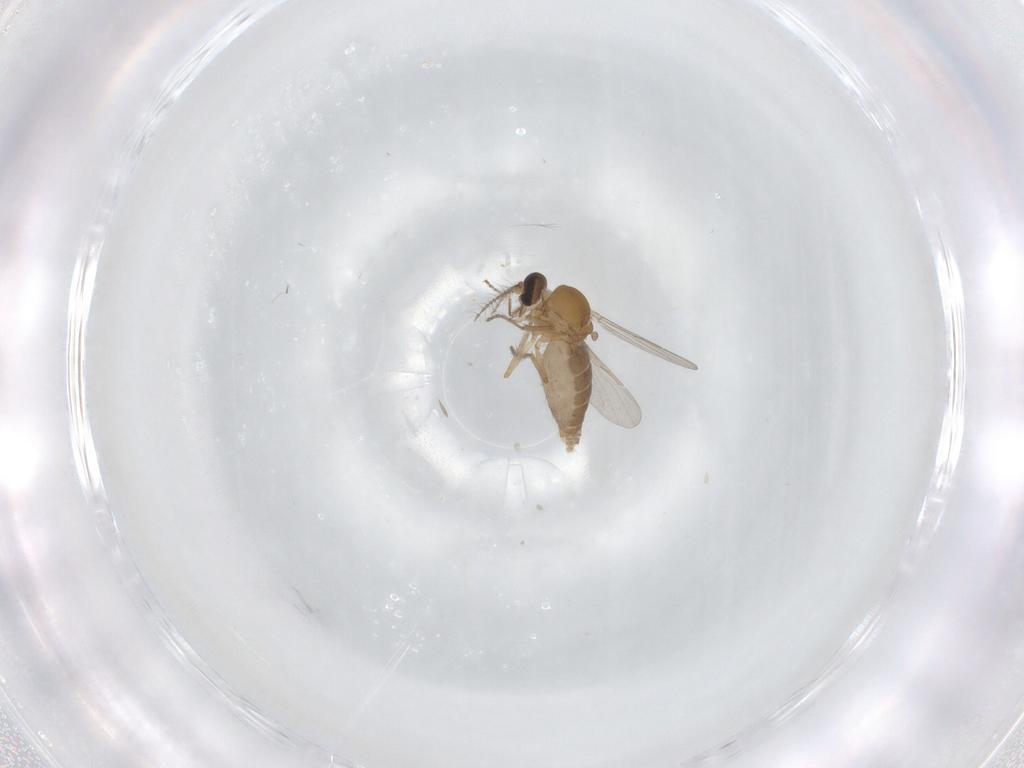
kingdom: Animalia
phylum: Arthropoda
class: Insecta
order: Diptera
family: Ceratopogonidae
